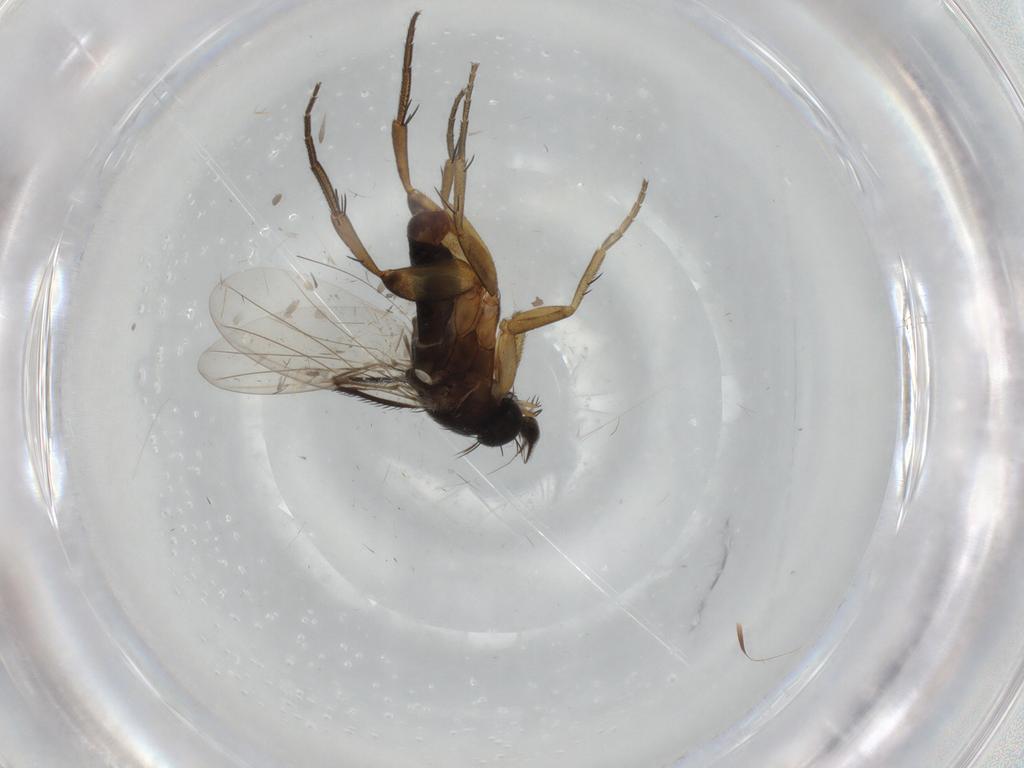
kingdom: Animalia
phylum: Arthropoda
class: Insecta
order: Diptera
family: Phoridae
